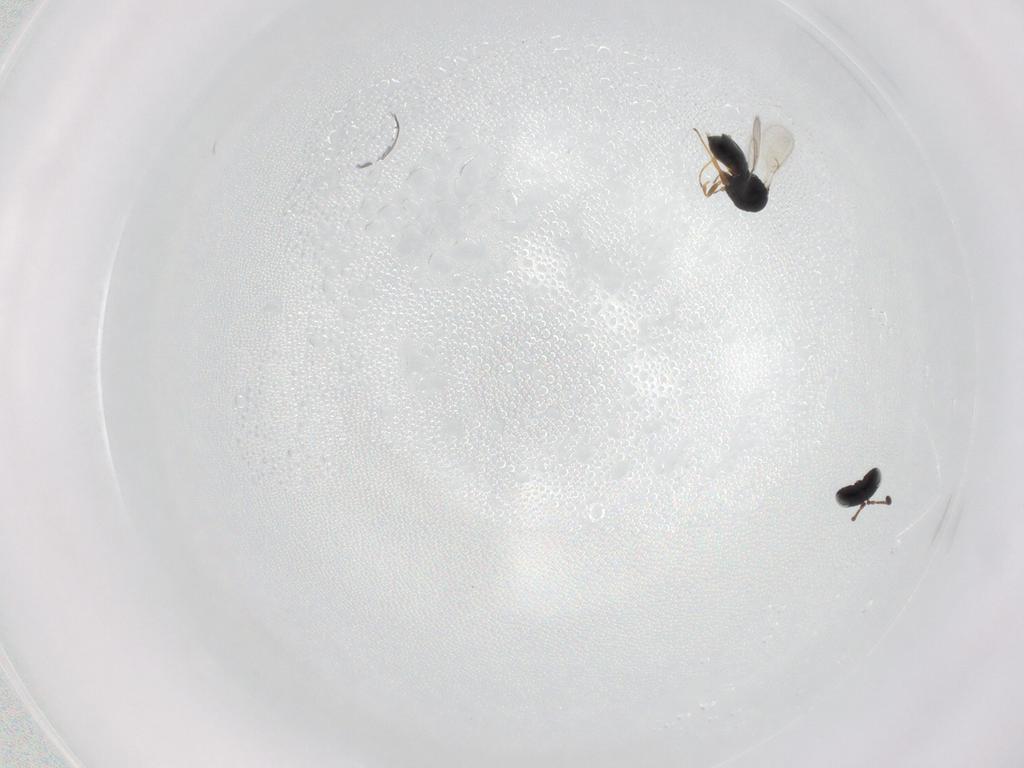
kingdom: Animalia
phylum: Arthropoda
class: Insecta
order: Hymenoptera
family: Scelionidae
